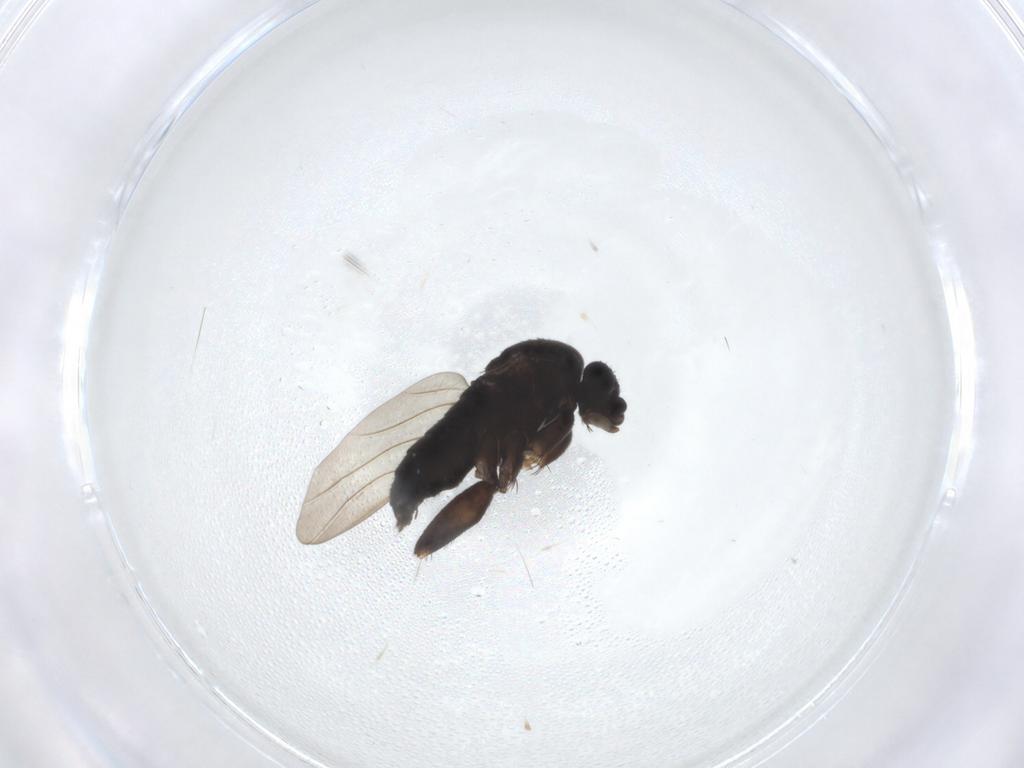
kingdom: Animalia
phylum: Arthropoda
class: Insecta
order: Diptera
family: Phoridae
